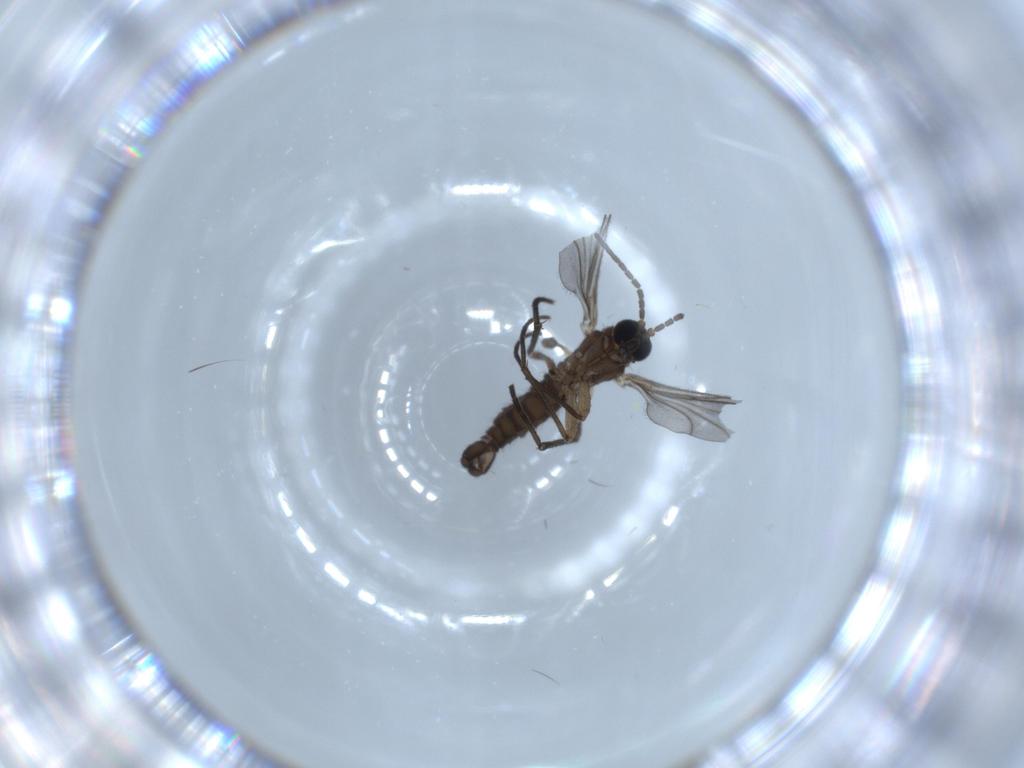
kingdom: Animalia
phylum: Arthropoda
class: Insecta
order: Diptera
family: Sciaridae
